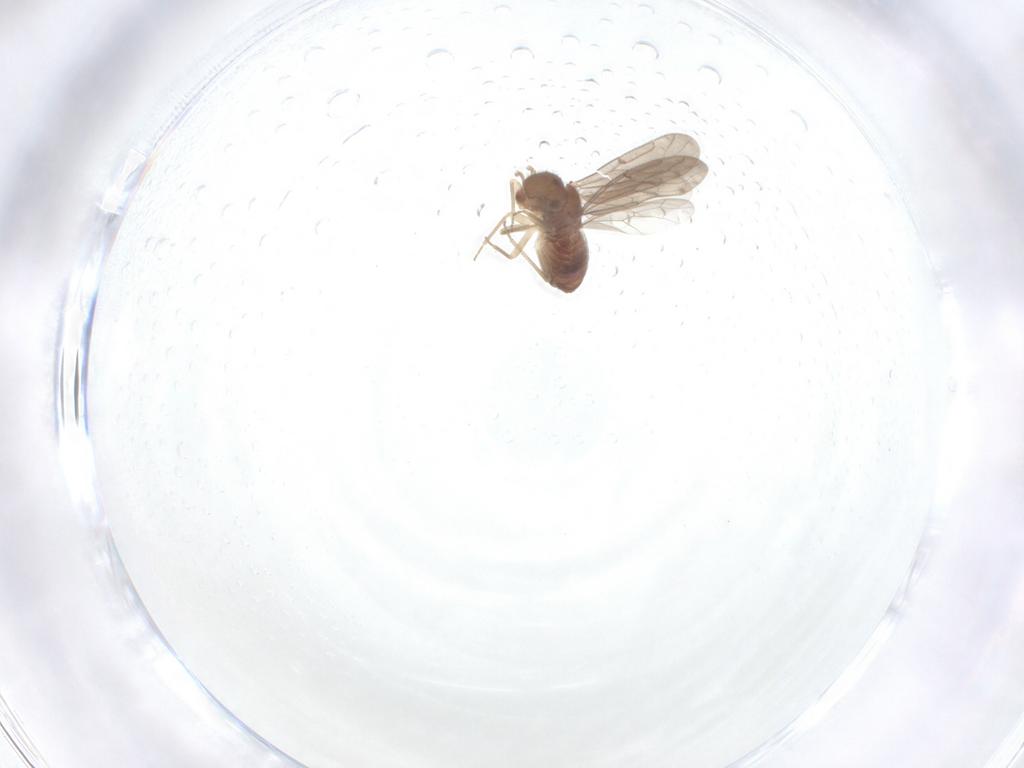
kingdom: Animalia
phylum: Arthropoda
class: Insecta
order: Psocodea
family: Ectopsocidae
